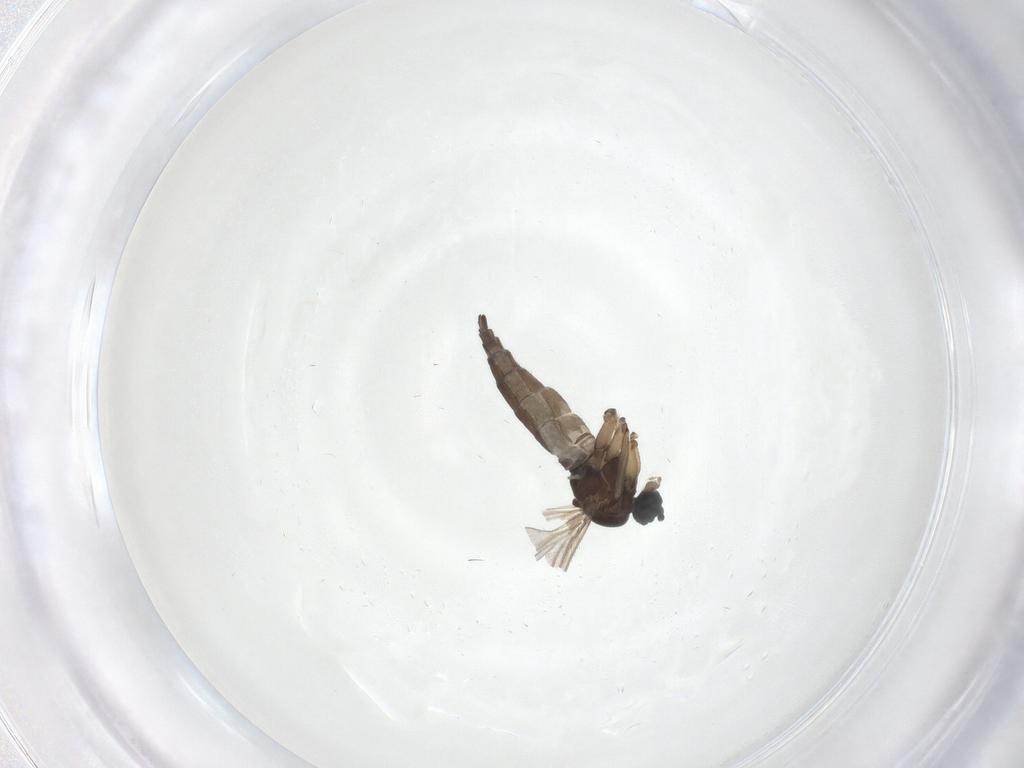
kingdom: Animalia
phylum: Arthropoda
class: Insecta
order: Diptera
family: Sciaridae
